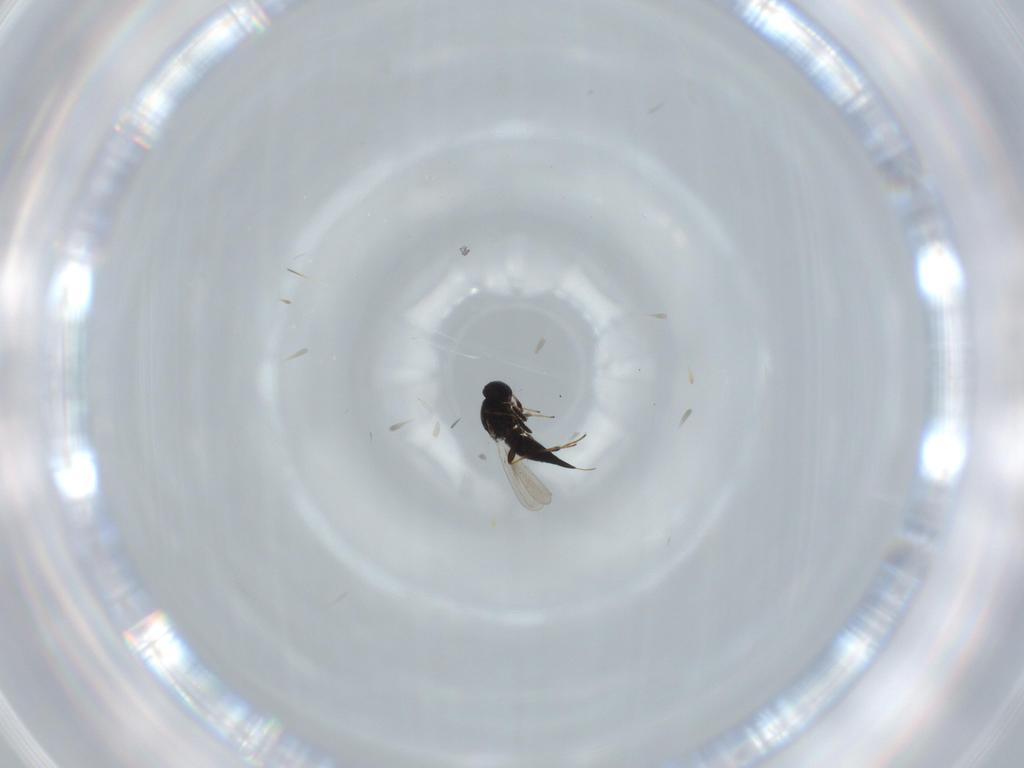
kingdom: Animalia
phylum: Arthropoda
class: Insecta
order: Hymenoptera
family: Platygastridae
